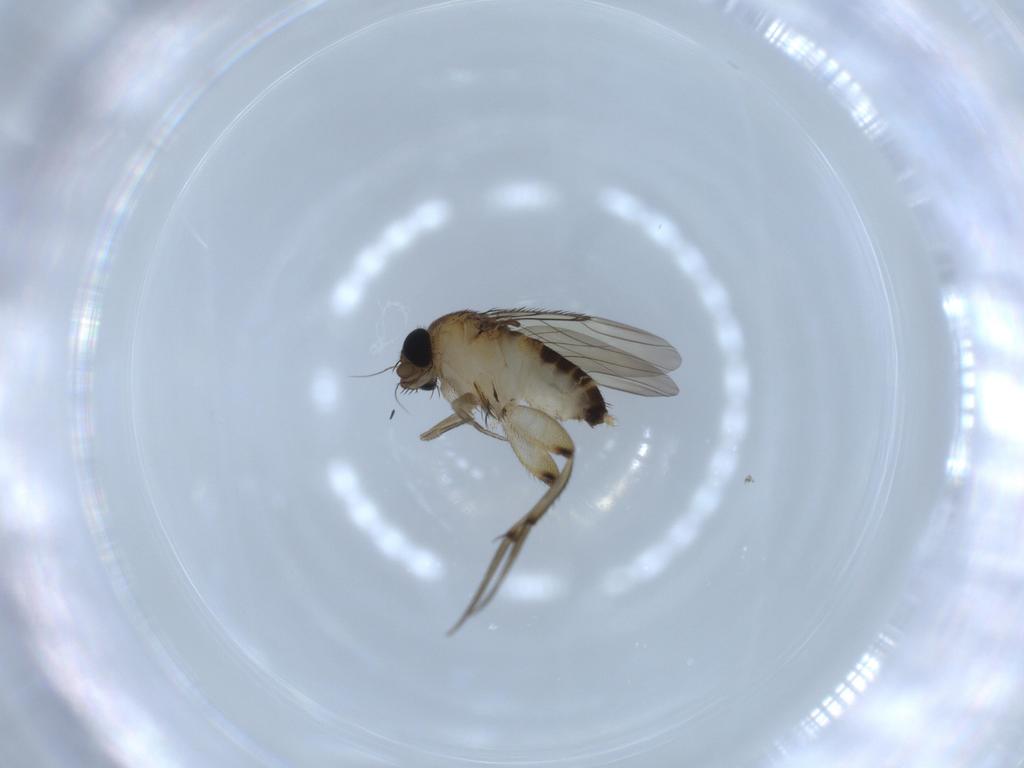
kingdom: Animalia
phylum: Arthropoda
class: Insecta
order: Diptera
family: Phoridae
